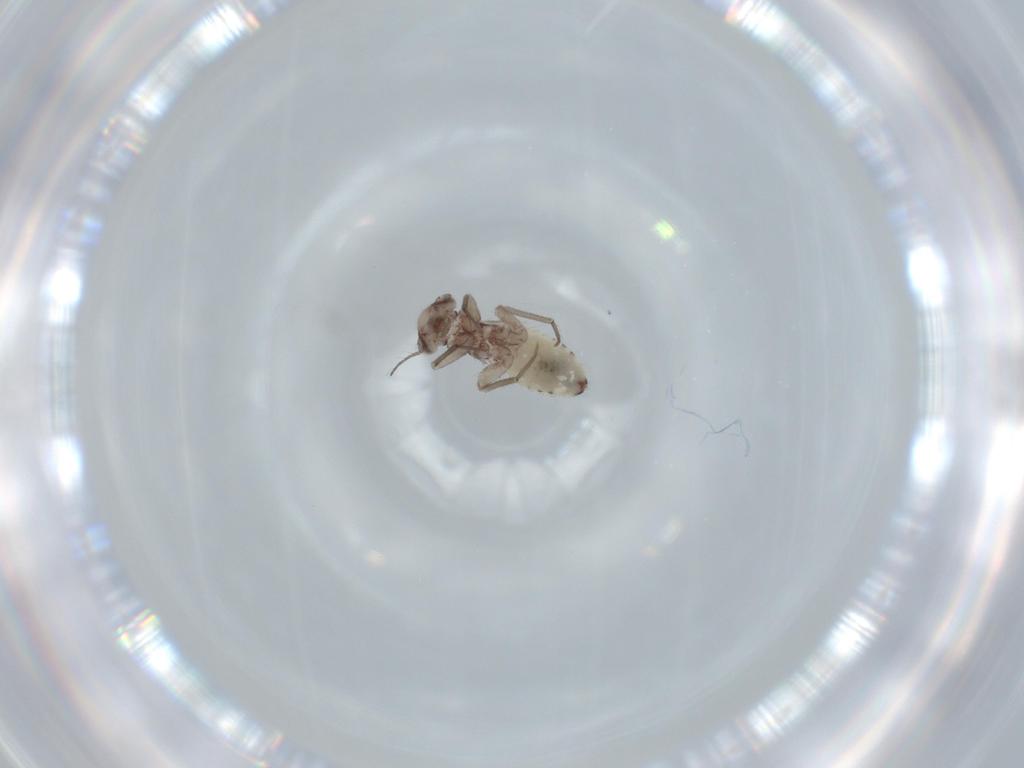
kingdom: Animalia
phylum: Arthropoda
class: Insecta
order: Psocodea
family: Lepidopsocidae
